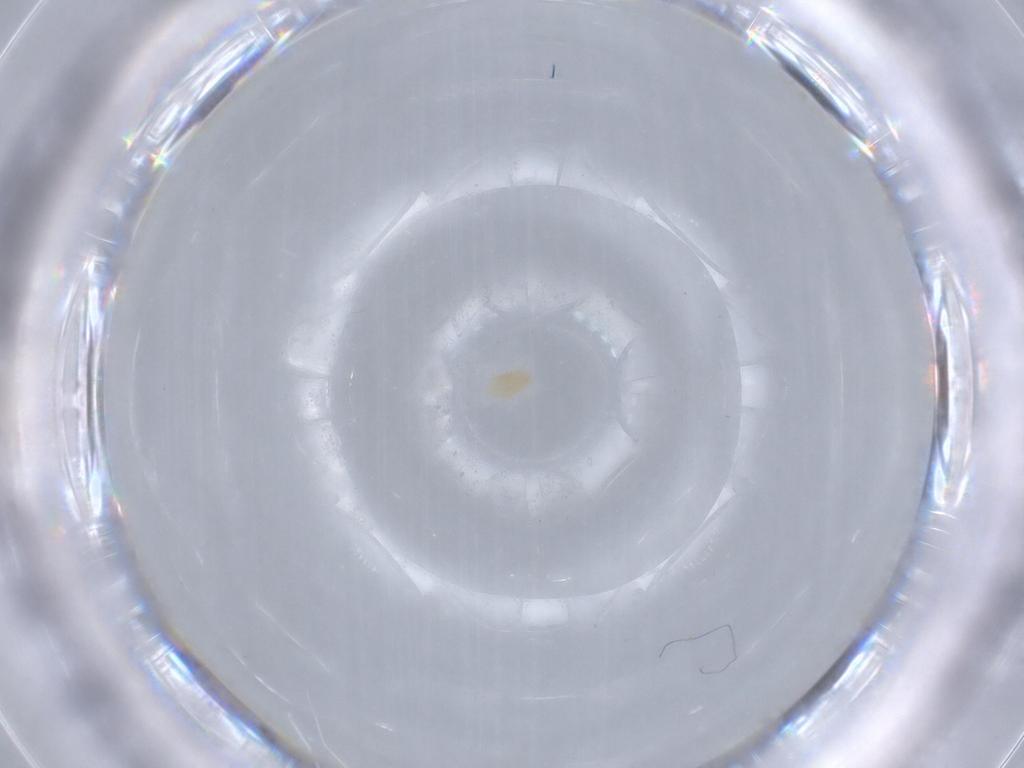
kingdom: Animalia
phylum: Arthropoda
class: Arachnida
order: Trombidiformes
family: Eupodidae
